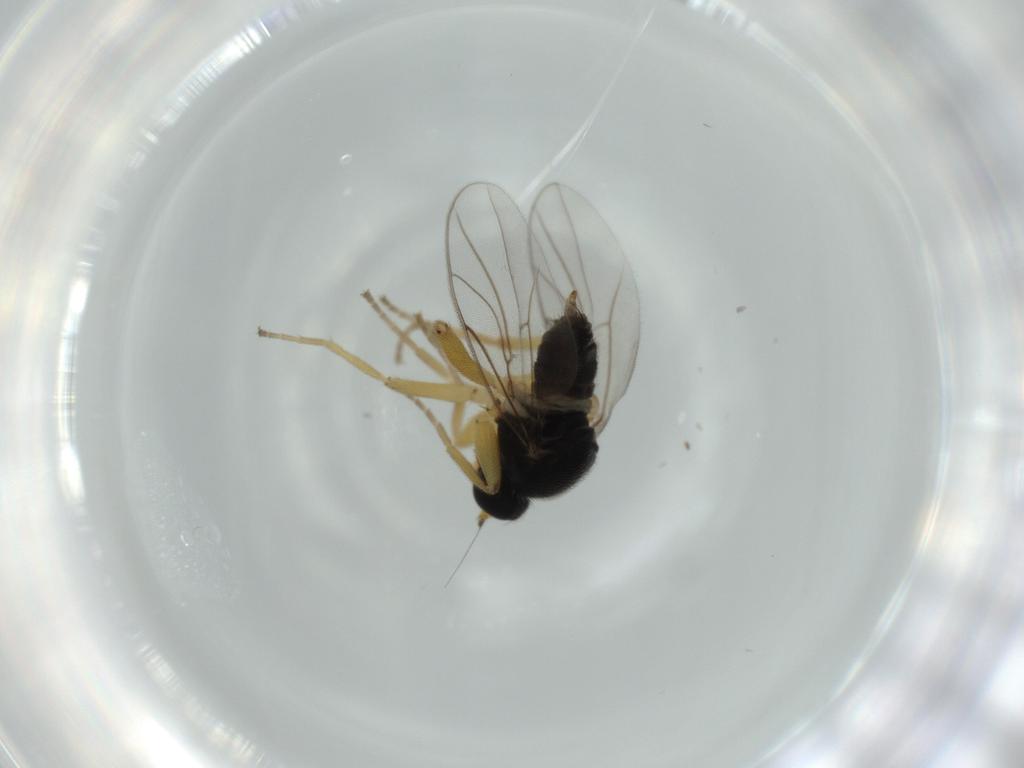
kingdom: Animalia
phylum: Arthropoda
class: Insecta
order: Diptera
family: Hybotidae
